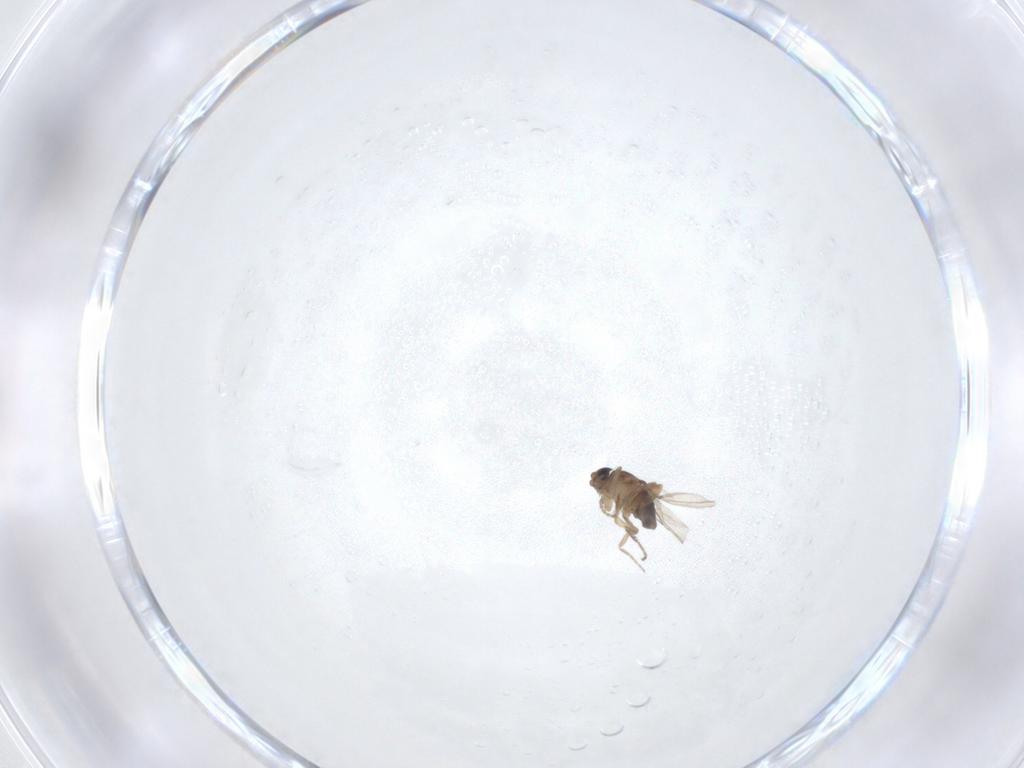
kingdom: Animalia
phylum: Arthropoda
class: Insecta
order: Diptera
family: Phoridae
